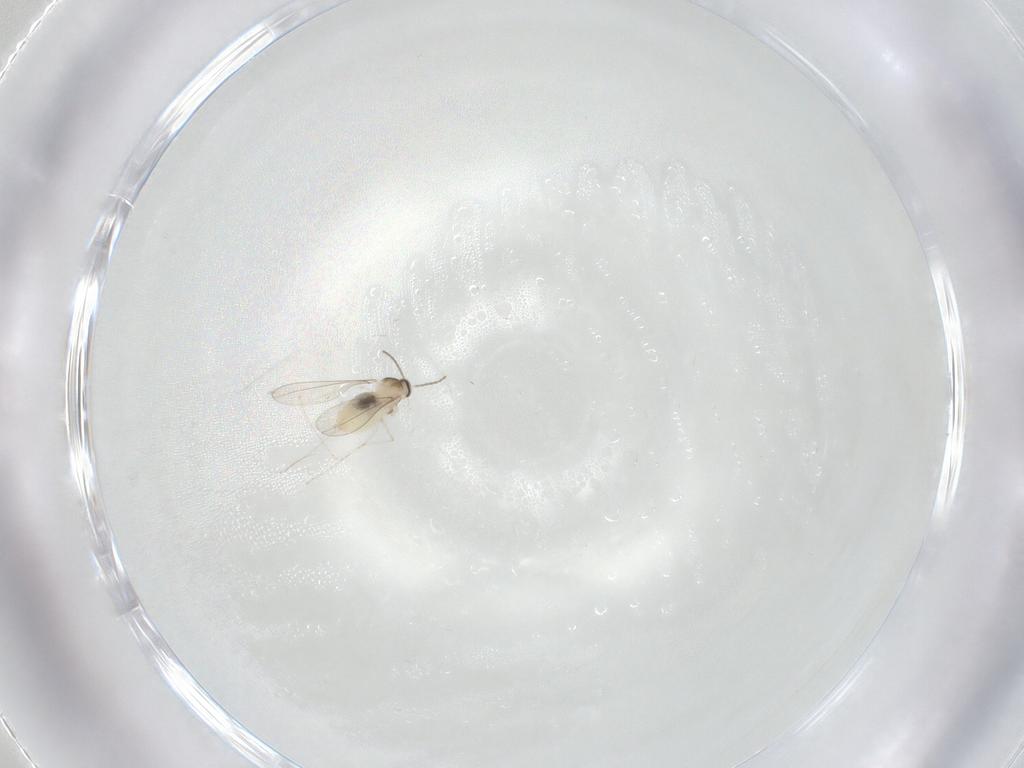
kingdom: Animalia
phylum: Arthropoda
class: Insecta
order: Diptera
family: Cecidomyiidae
